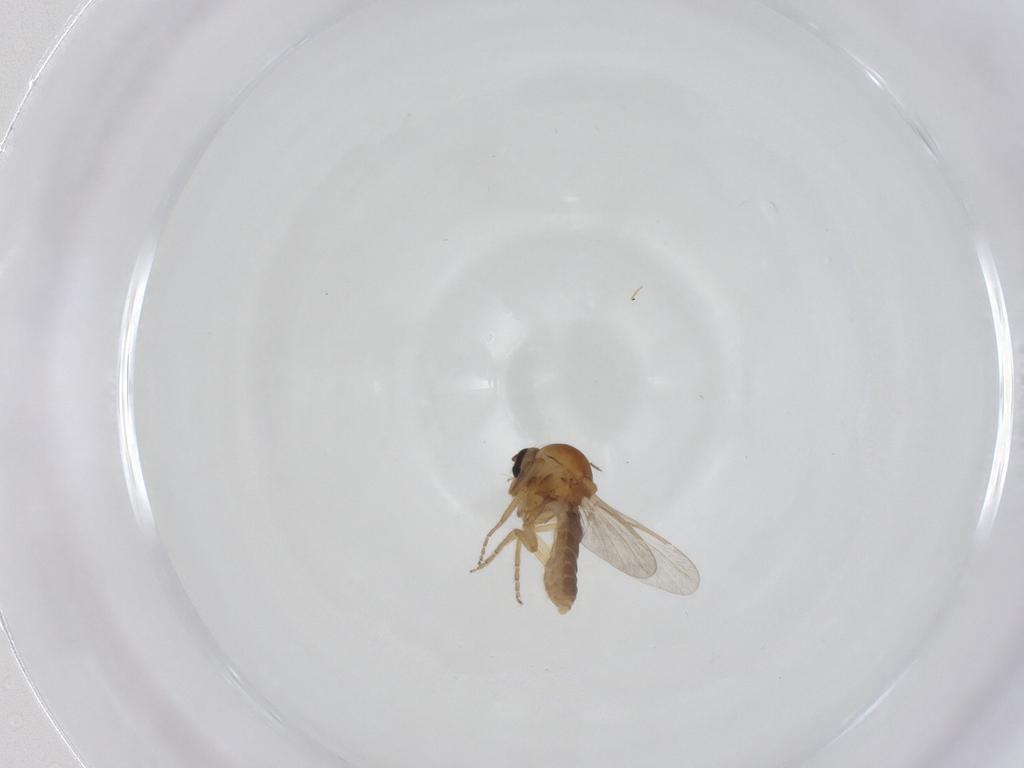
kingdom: Animalia
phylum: Arthropoda
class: Insecta
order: Diptera
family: Ceratopogonidae
